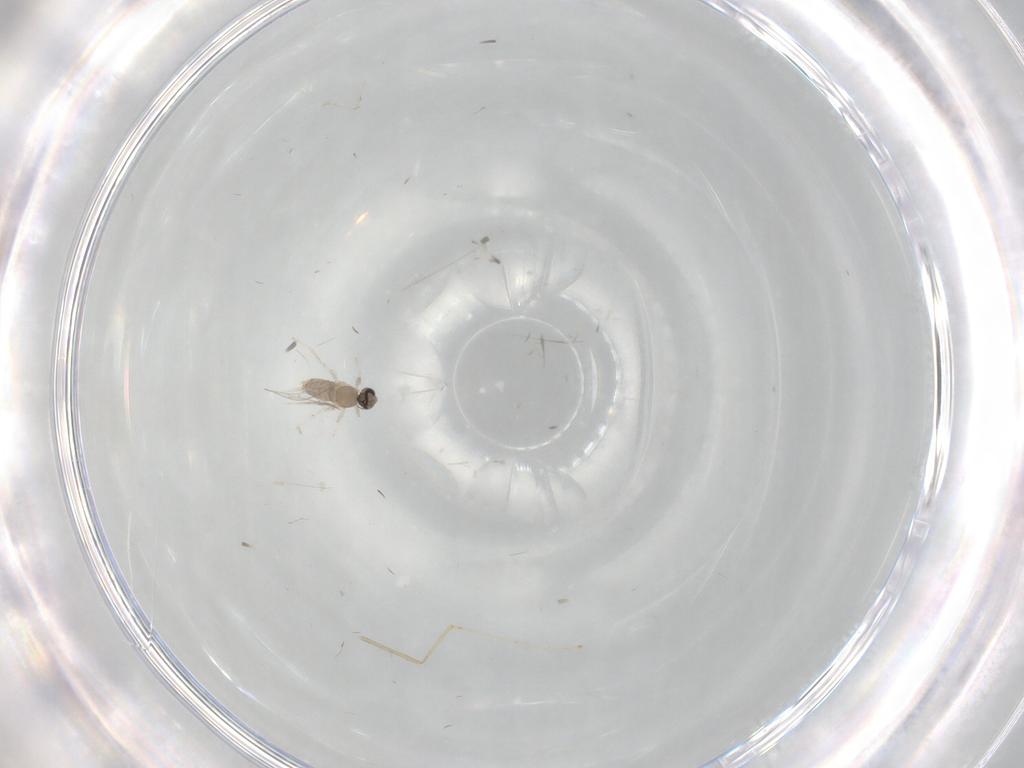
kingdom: Animalia
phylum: Arthropoda
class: Insecta
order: Diptera
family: Cecidomyiidae
